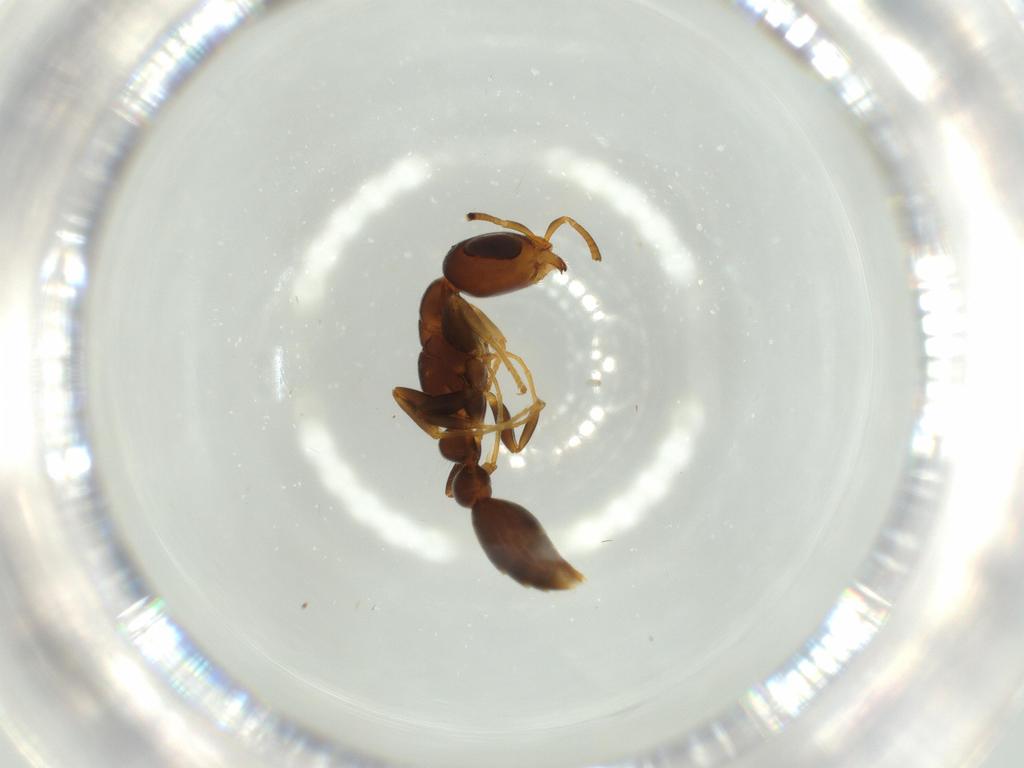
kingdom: Animalia
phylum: Arthropoda
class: Insecta
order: Hymenoptera
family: Formicidae
